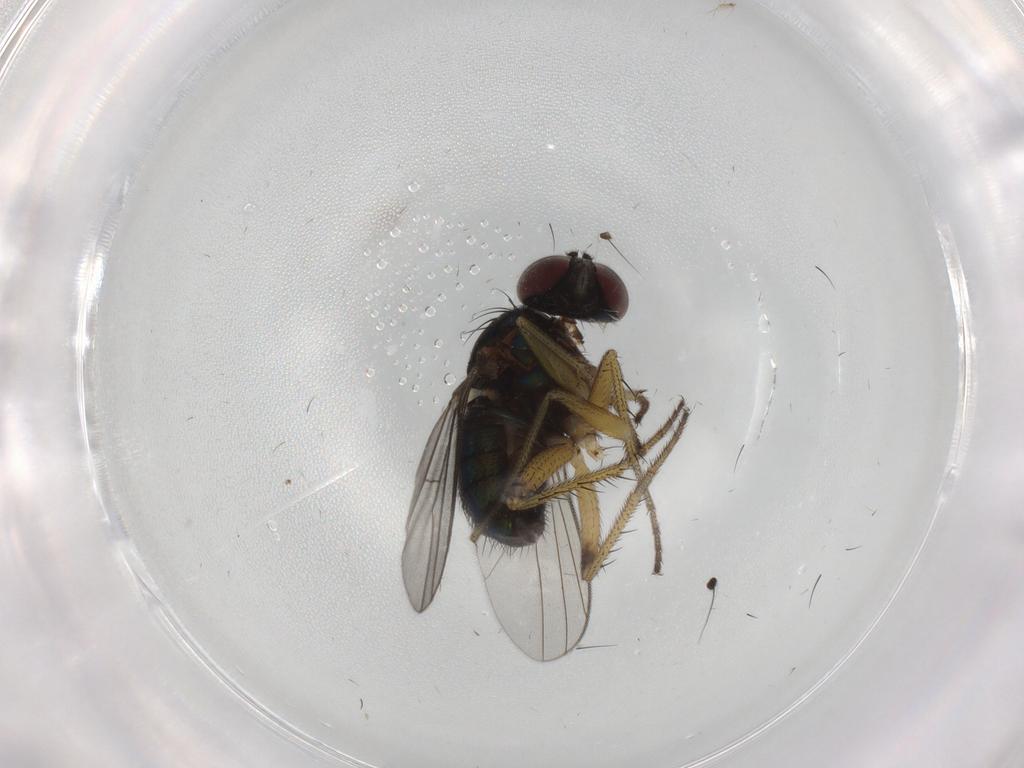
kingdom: Animalia
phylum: Arthropoda
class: Insecta
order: Diptera
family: Dolichopodidae
